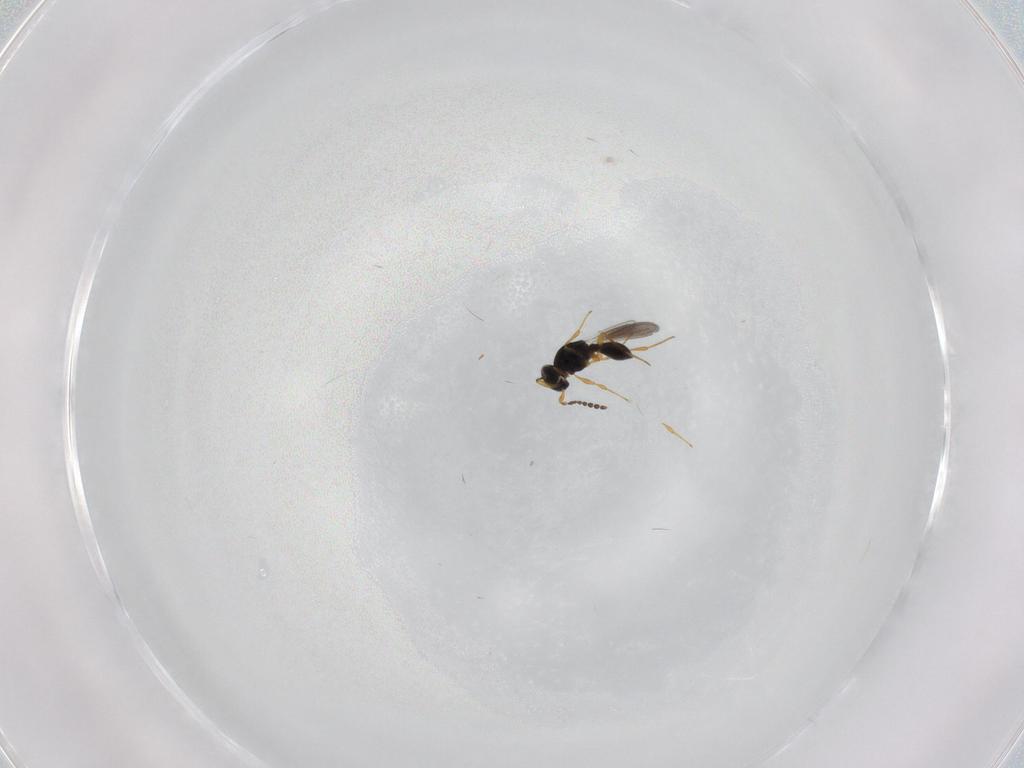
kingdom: Animalia
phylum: Arthropoda
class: Insecta
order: Hymenoptera
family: Platygastridae
